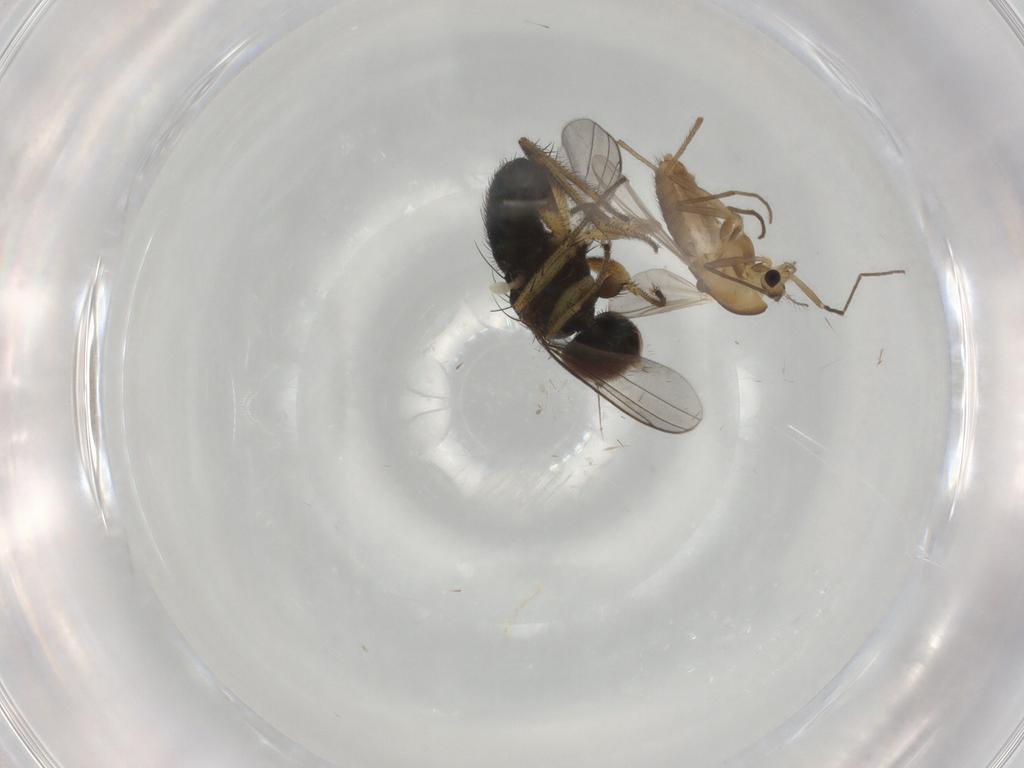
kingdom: Animalia
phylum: Arthropoda
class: Insecta
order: Diptera
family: Chironomidae
